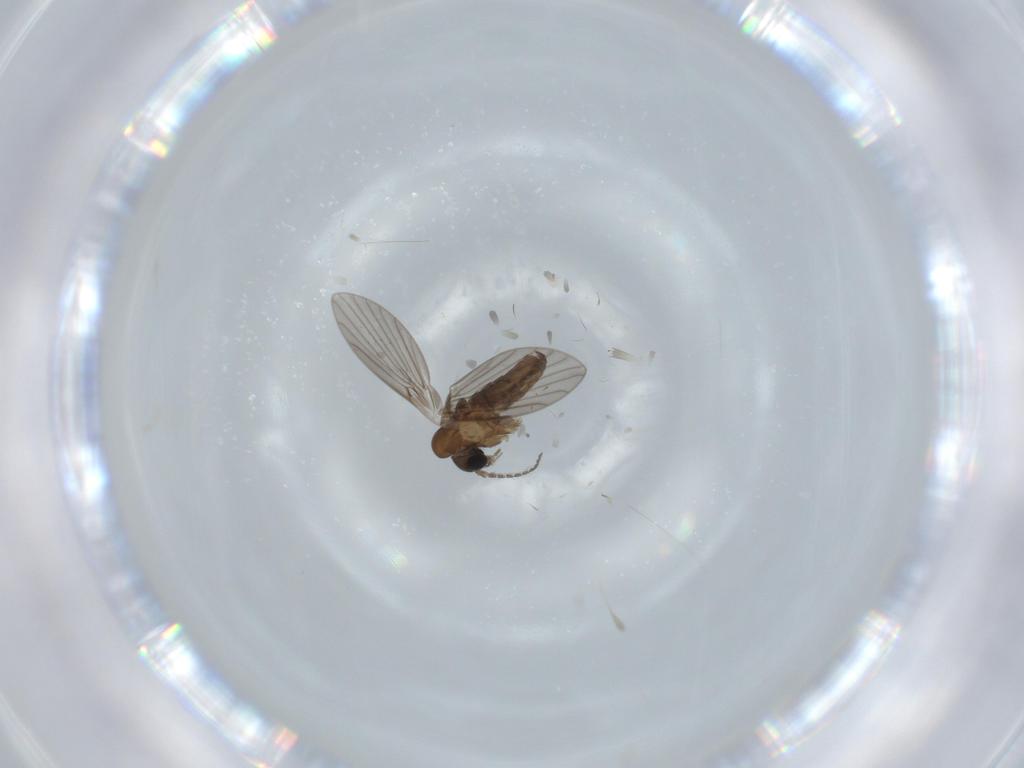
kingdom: Animalia
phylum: Arthropoda
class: Insecta
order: Diptera
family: Psychodidae
